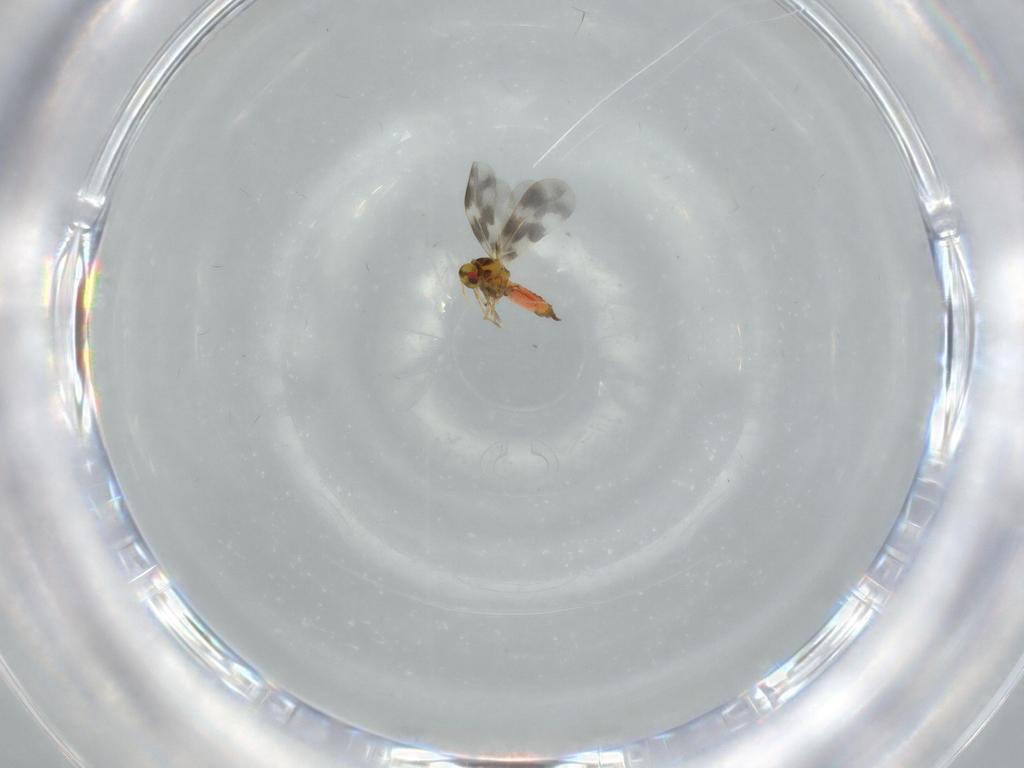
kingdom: Animalia
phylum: Arthropoda
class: Insecta
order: Hemiptera
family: Aleyrodidae
